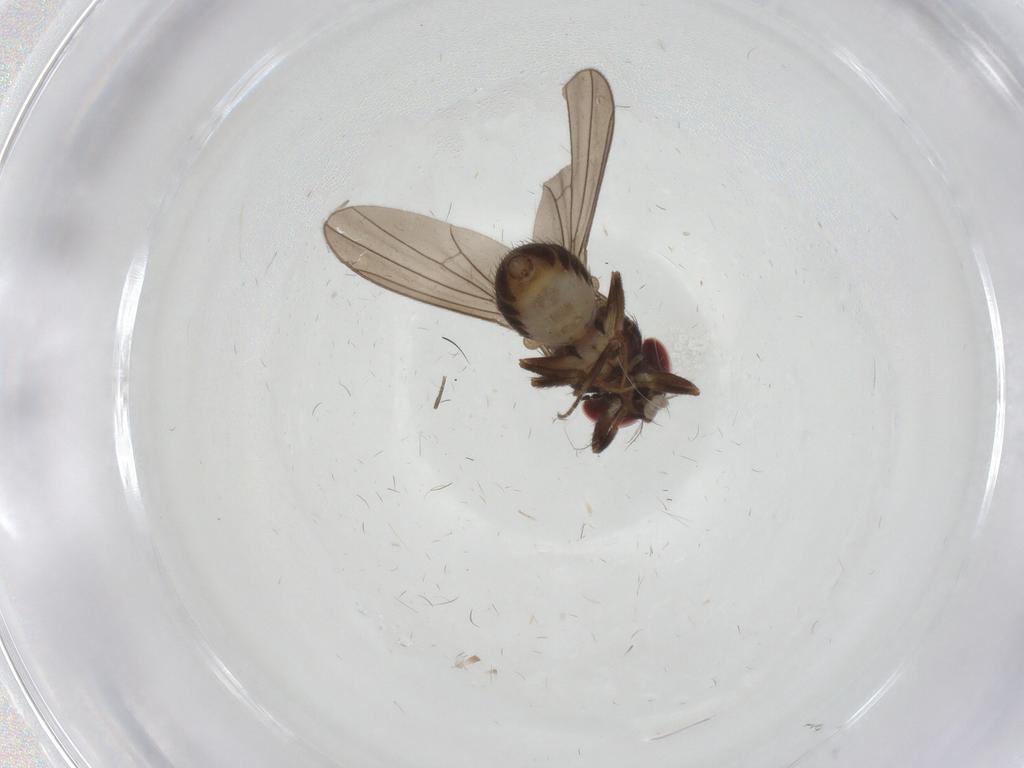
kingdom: Animalia
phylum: Arthropoda
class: Insecta
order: Diptera
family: Drosophilidae
